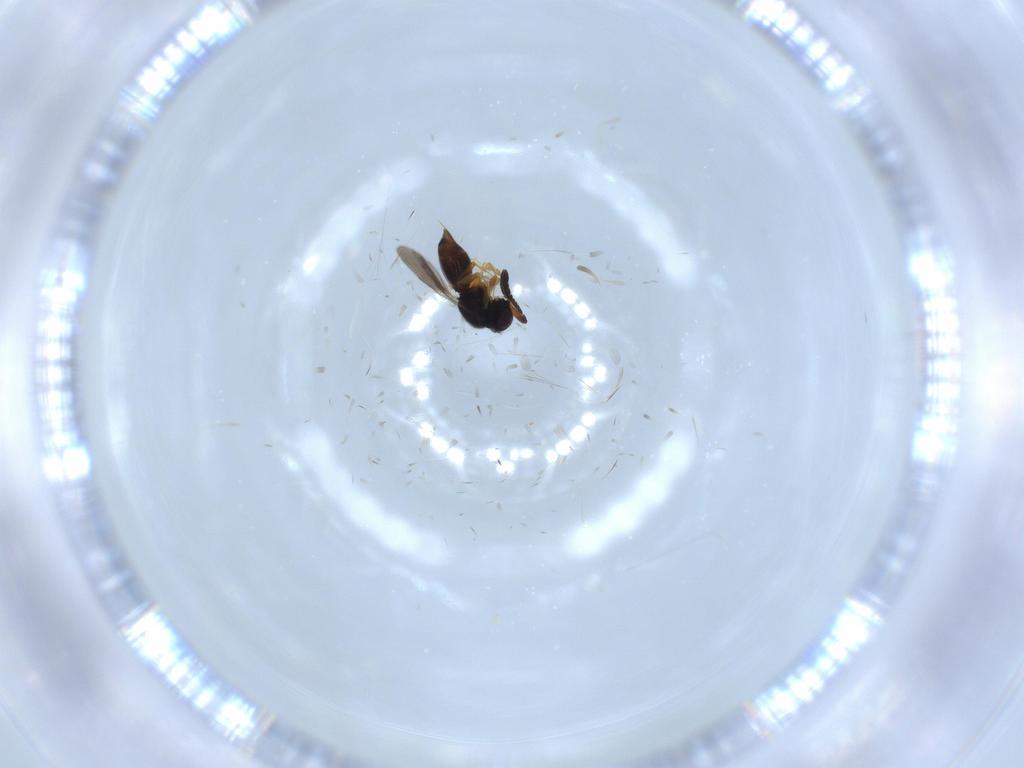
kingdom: Animalia
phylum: Arthropoda
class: Insecta
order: Hymenoptera
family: Ceraphronidae
